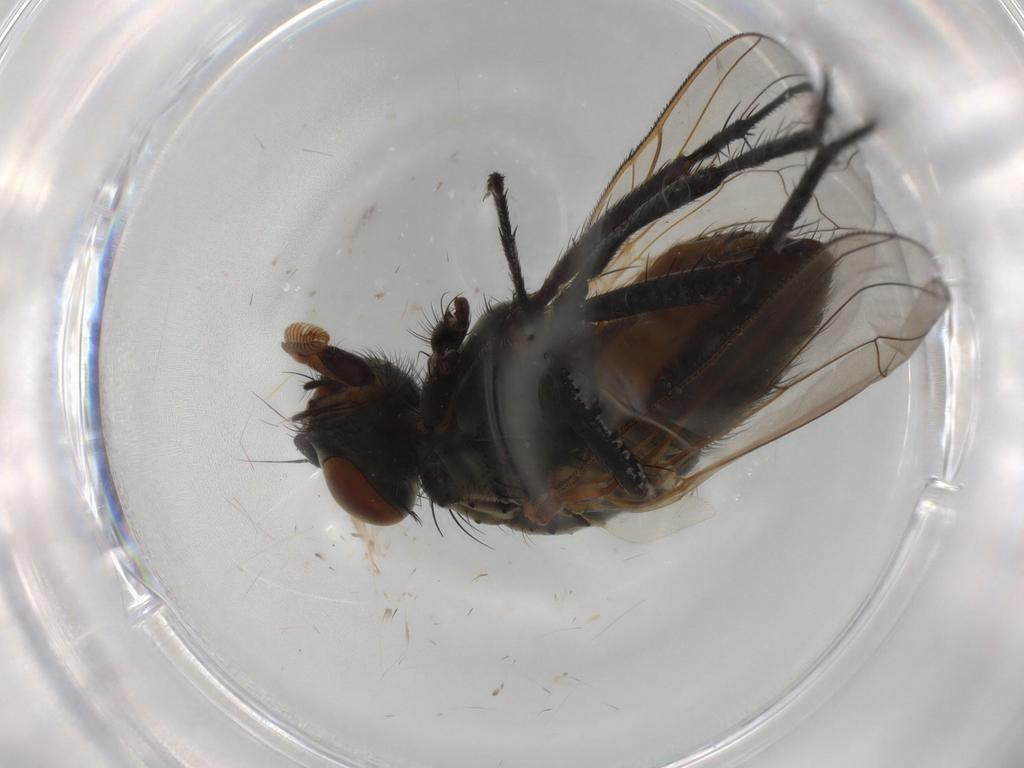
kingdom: Animalia
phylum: Arthropoda
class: Insecta
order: Diptera
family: Anthomyiidae
